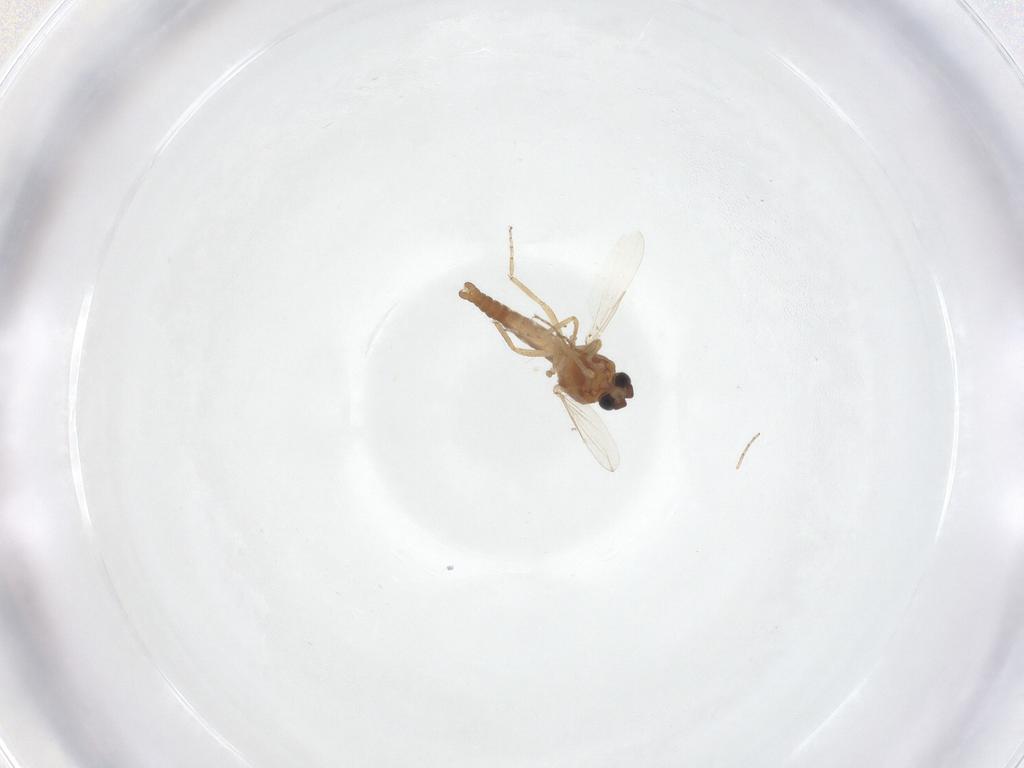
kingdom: Animalia
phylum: Arthropoda
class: Insecta
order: Diptera
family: Ceratopogonidae
